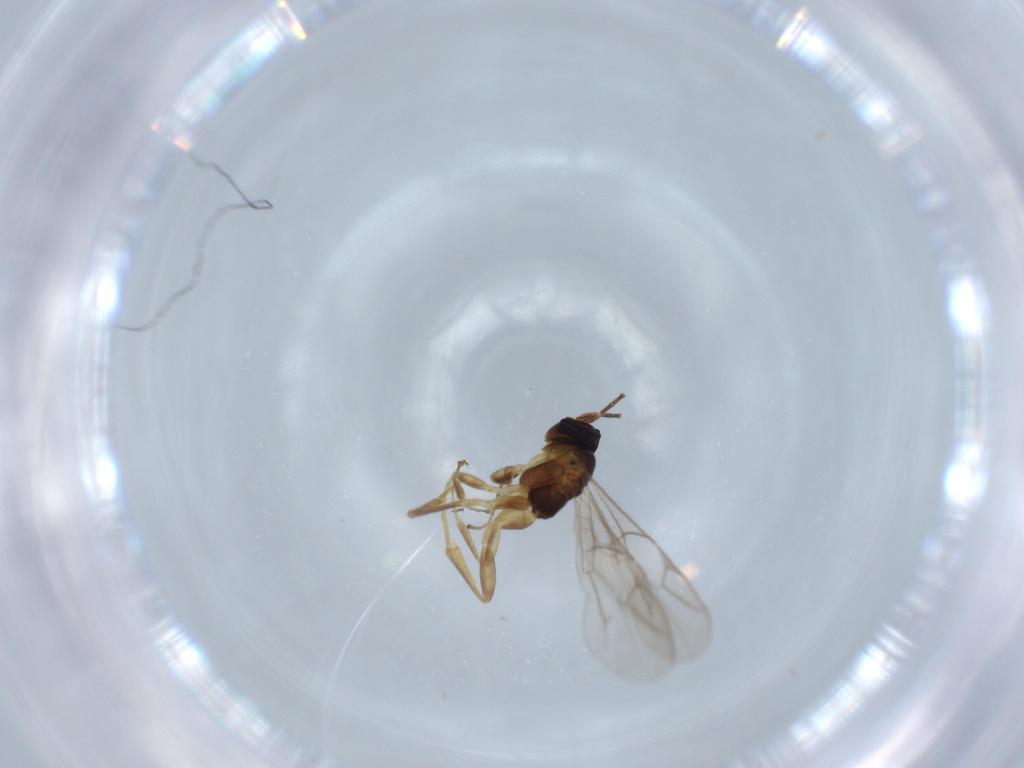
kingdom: Animalia
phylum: Arthropoda
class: Insecta
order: Hymenoptera
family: Ichneumonidae
